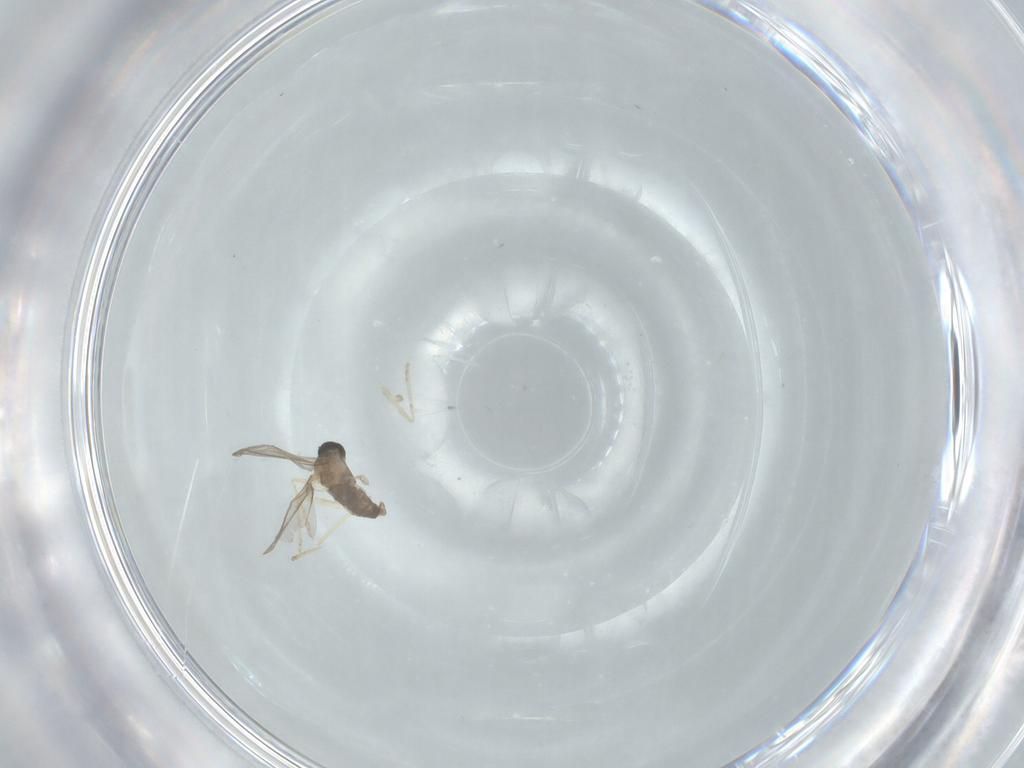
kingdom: Animalia
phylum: Arthropoda
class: Insecta
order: Diptera
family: Cecidomyiidae
